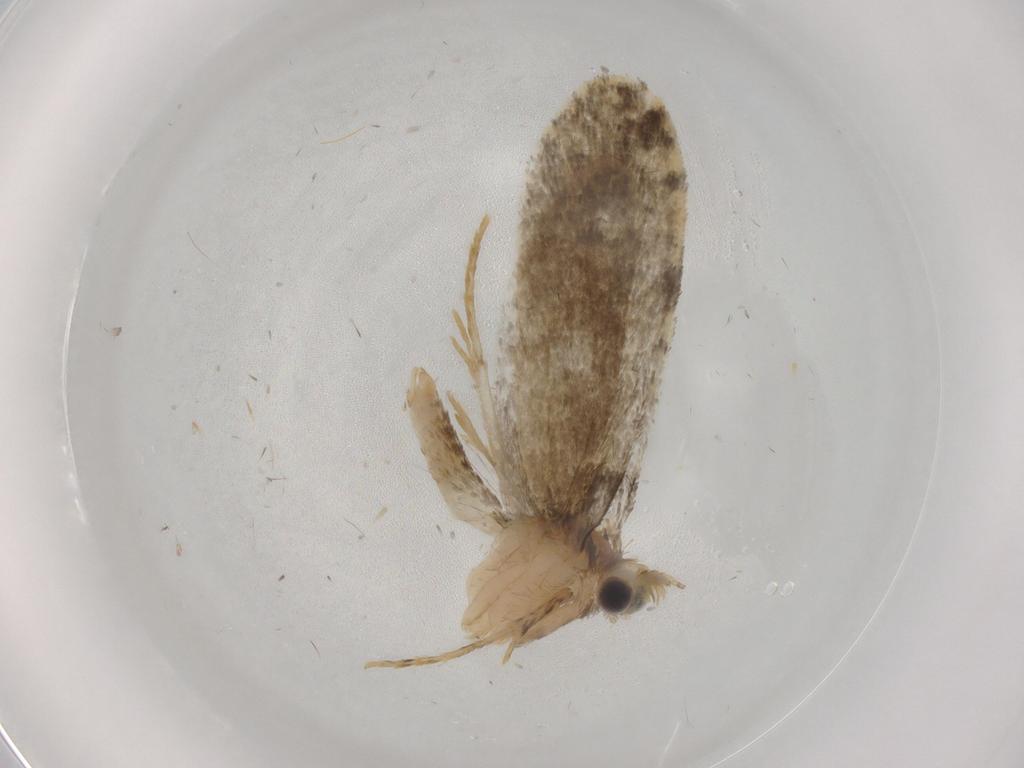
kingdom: Animalia
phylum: Arthropoda
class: Insecta
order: Lepidoptera
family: Psychidae
